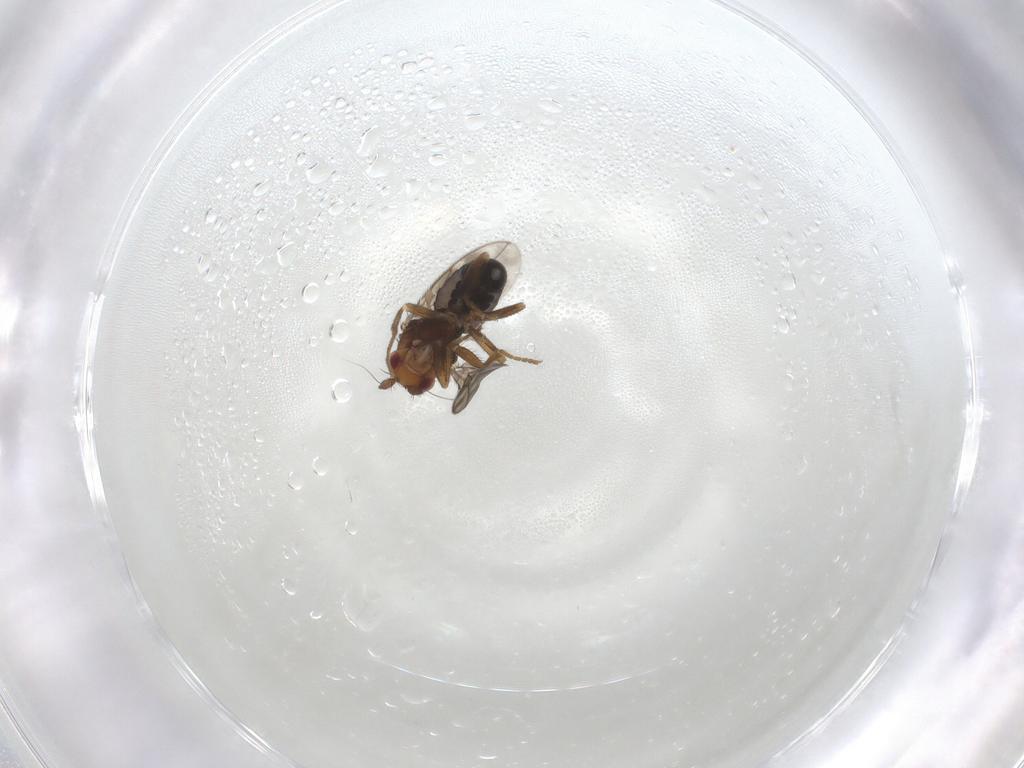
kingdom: Animalia
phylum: Arthropoda
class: Insecta
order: Diptera
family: Sphaeroceridae
